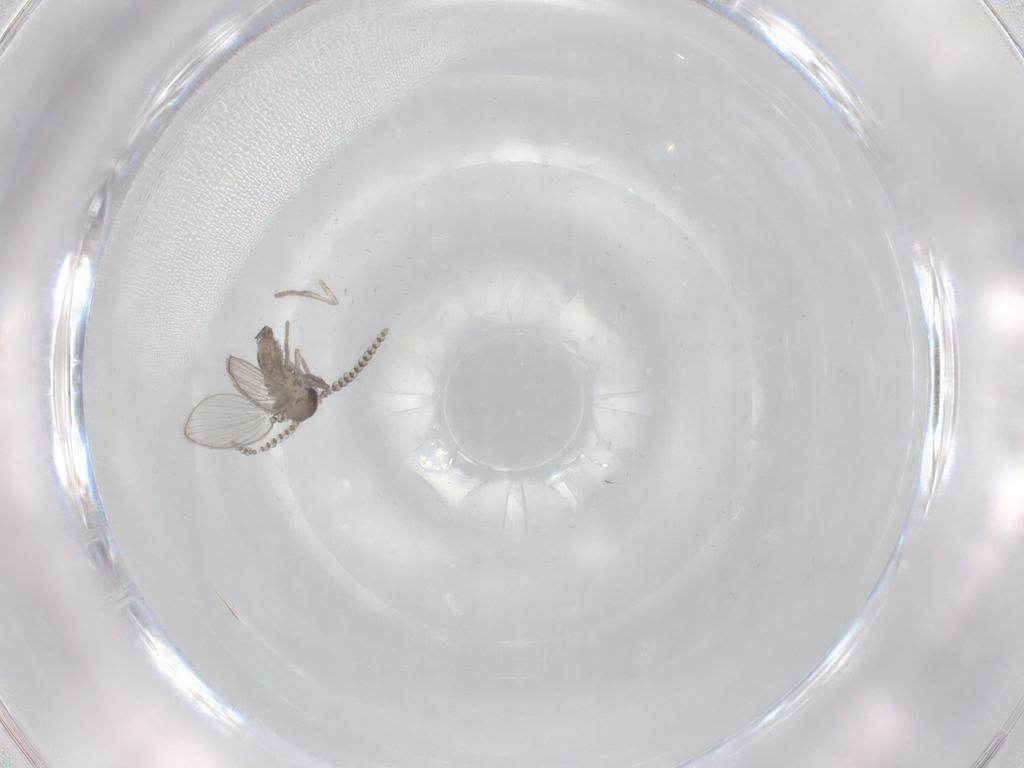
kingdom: Animalia
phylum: Arthropoda
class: Insecta
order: Diptera
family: Psychodidae
